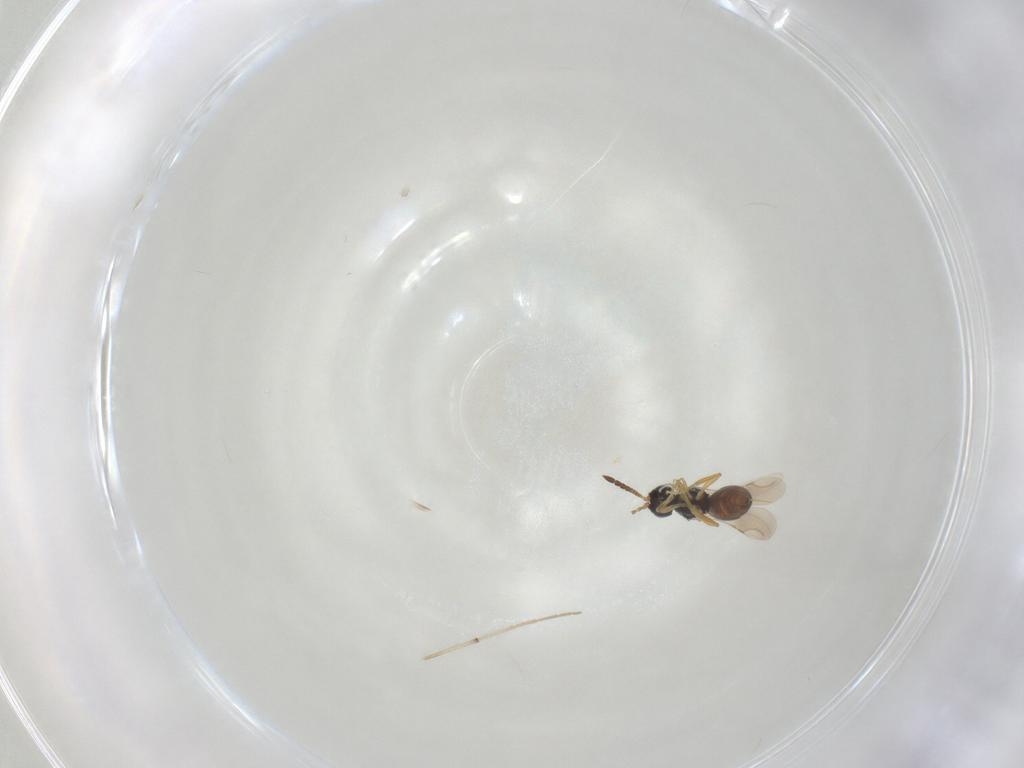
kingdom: Animalia
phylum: Arthropoda
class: Insecta
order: Hymenoptera
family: Ceraphronidae
